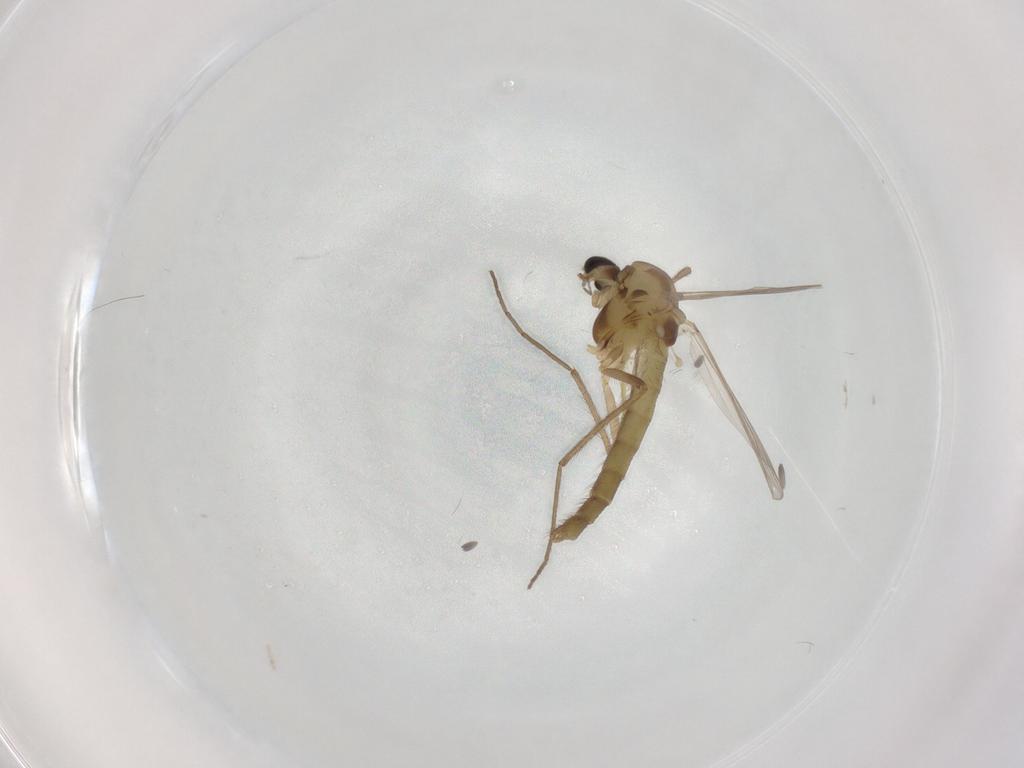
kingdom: Animalia
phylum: Arthropoda
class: Insecta
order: Diptera
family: Chironomidae
